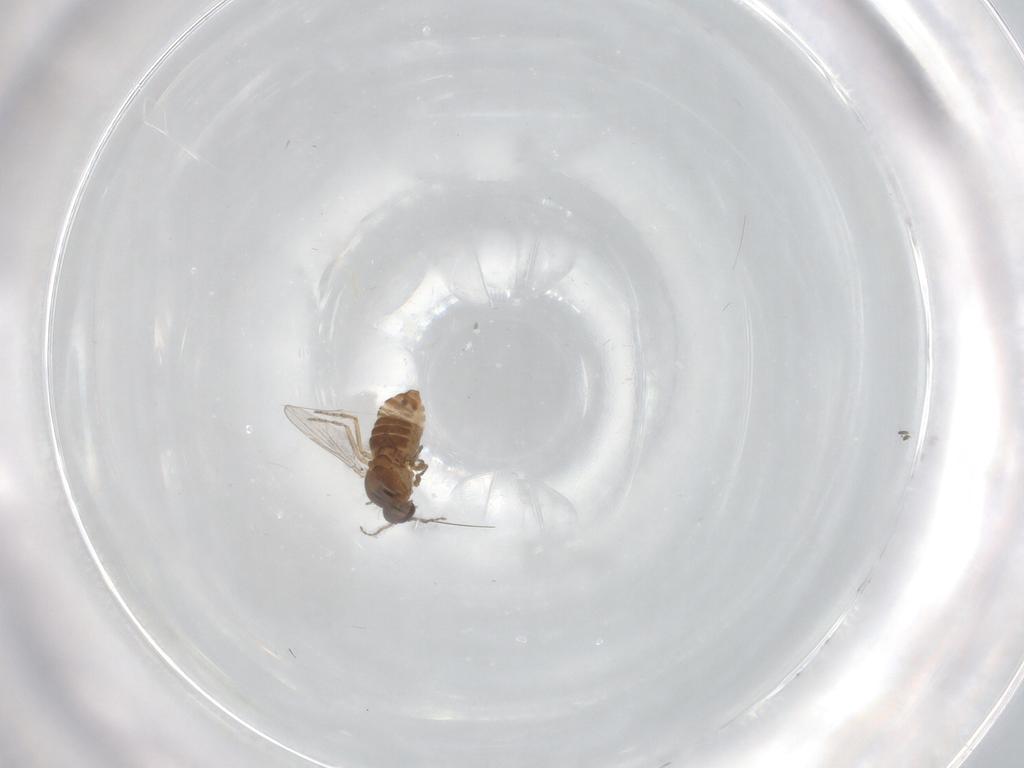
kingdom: Animalia
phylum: Arthropoda
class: Insecta
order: Diptera
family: Ceratopogonidae
